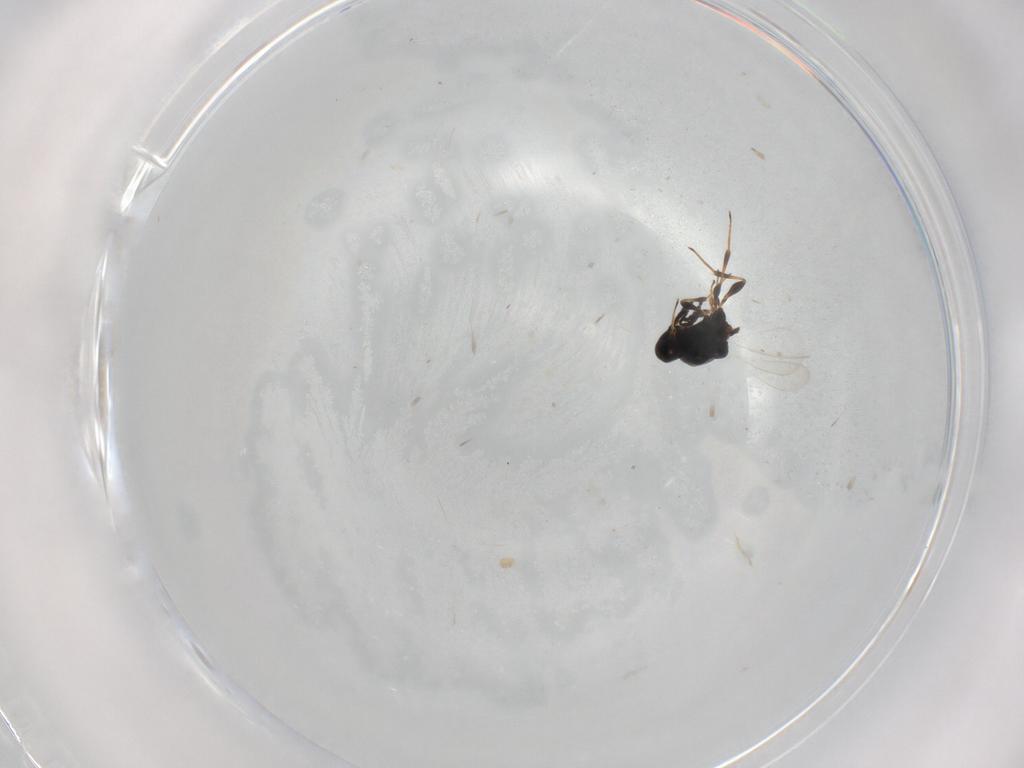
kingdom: Animalia
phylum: Arthropoda
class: Insecta
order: Hymenoptera
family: Platygastridae
